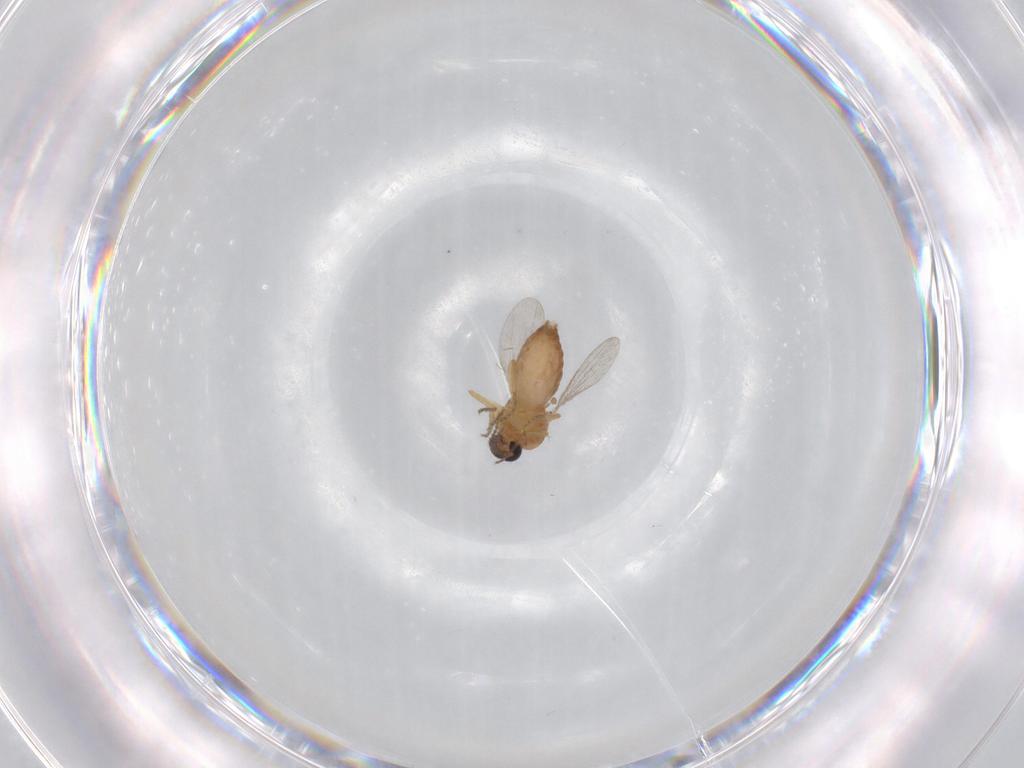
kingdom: Animalia
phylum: Arthropoda
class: Insecta
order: Diptera
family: Ceratopogonidae
